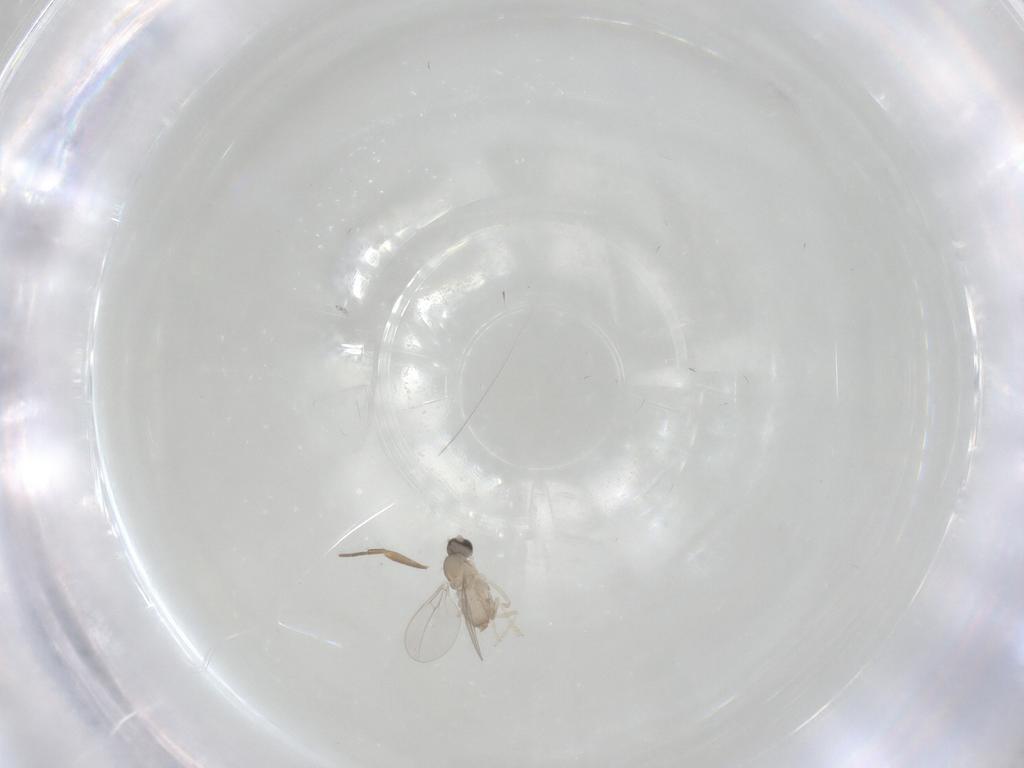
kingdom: Animalia
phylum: Arthropoda
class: Insecta
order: Diptera
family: Cecidomyiidae
